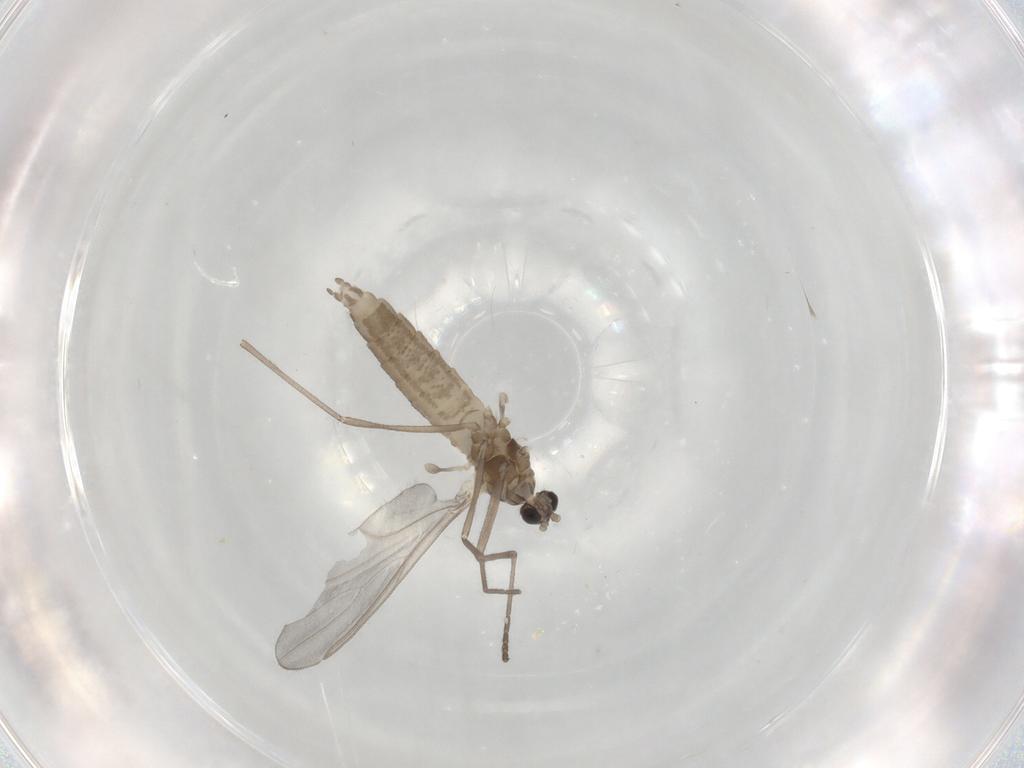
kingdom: Animalia
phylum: Arthropoda
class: Insecta
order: Diptera
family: Cecidomyiidae
